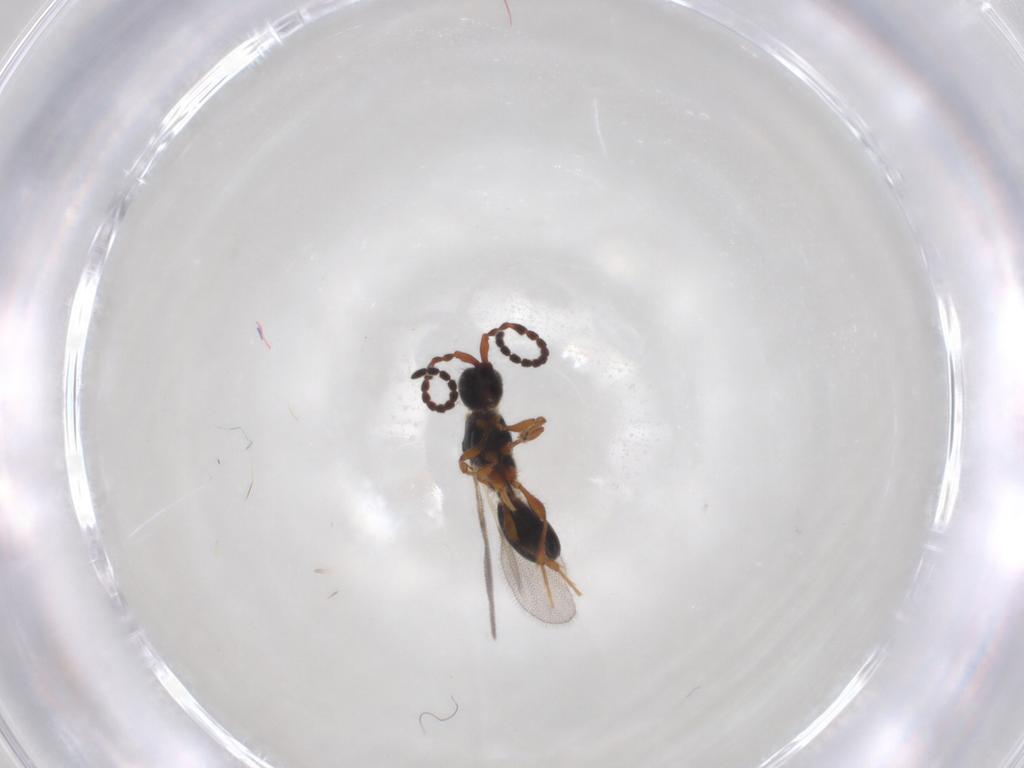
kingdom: Animalia
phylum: Arthropoda
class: Insecta
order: Hymenoptera
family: Diapriidae
